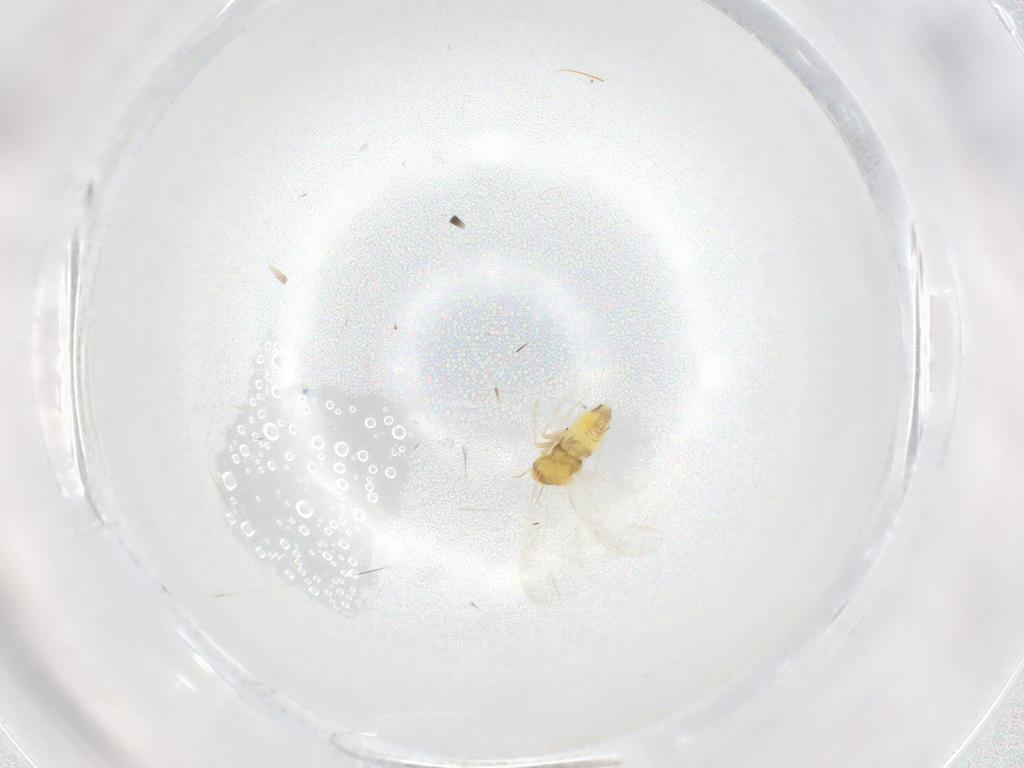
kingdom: Animalia
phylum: Arthropoda
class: Insecta
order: Hemiptera
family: Aleyrodidae
